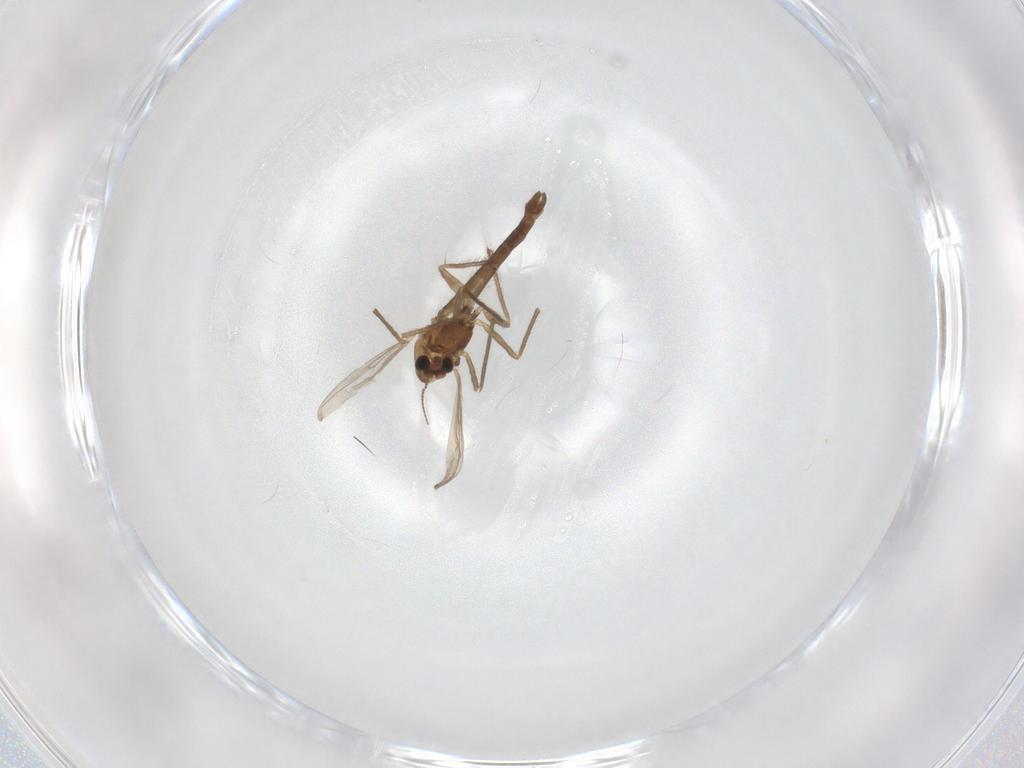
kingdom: Animalia
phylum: Arthropoda
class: Insecta
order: Diptera
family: Chironomidae
